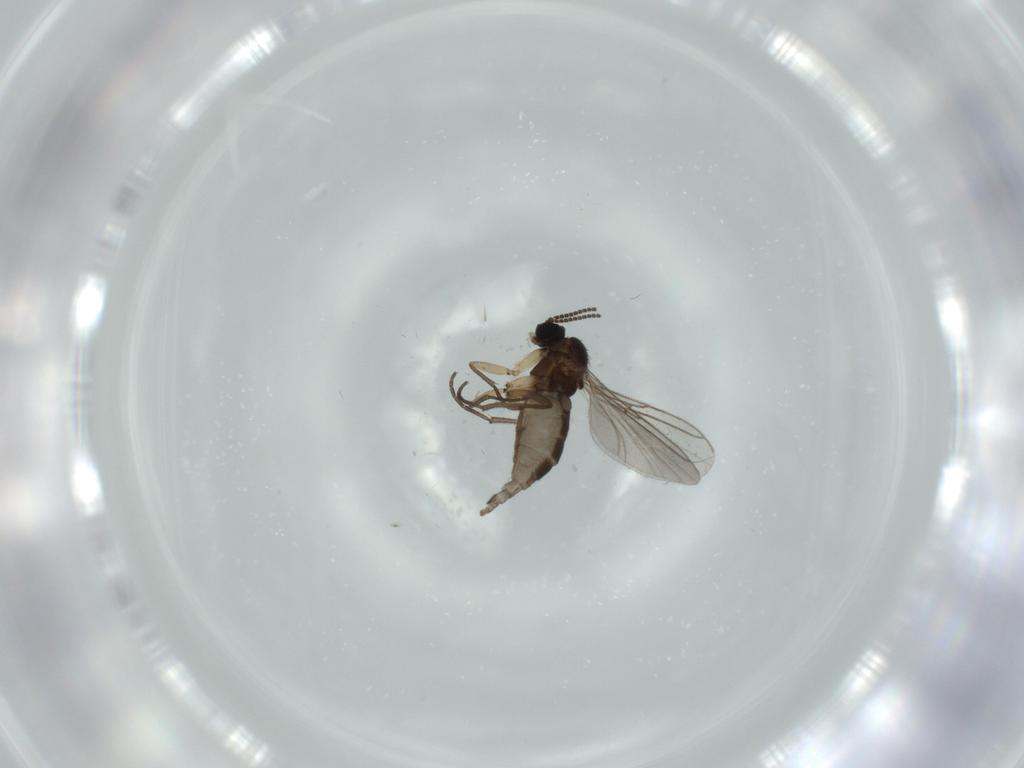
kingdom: Animalia
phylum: Arthropoda
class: Insecta
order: Diptera
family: Sciaridae
